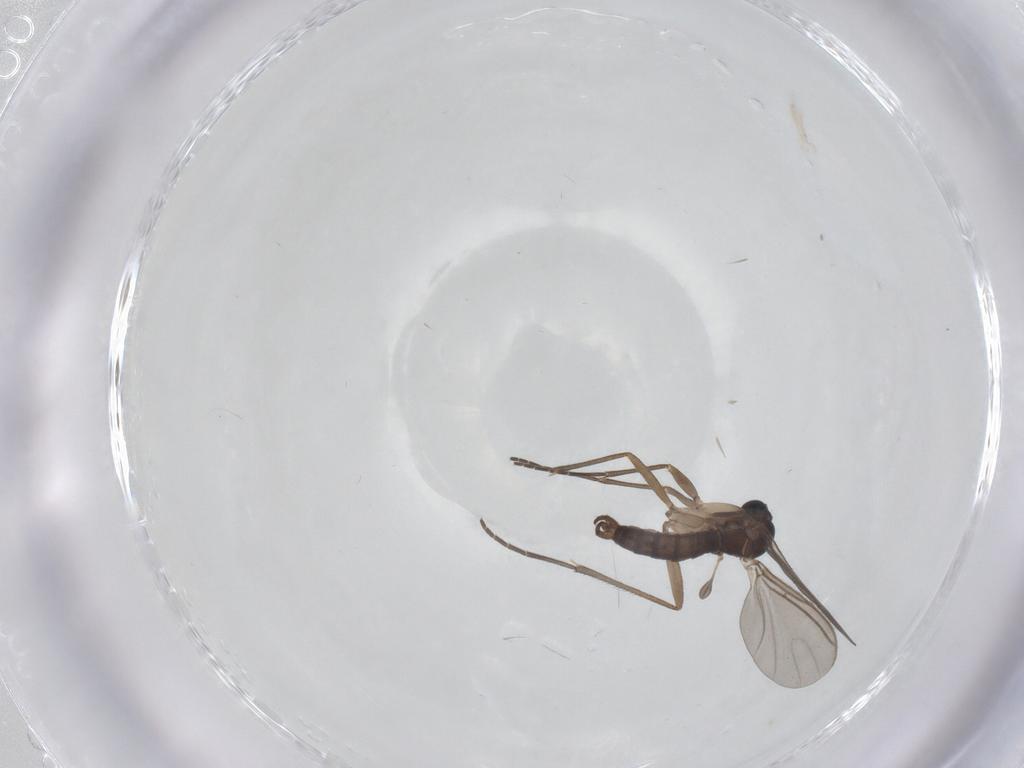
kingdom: Animalia
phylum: Arthropoda
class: Insecta
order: Diptera
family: Sciaridae
